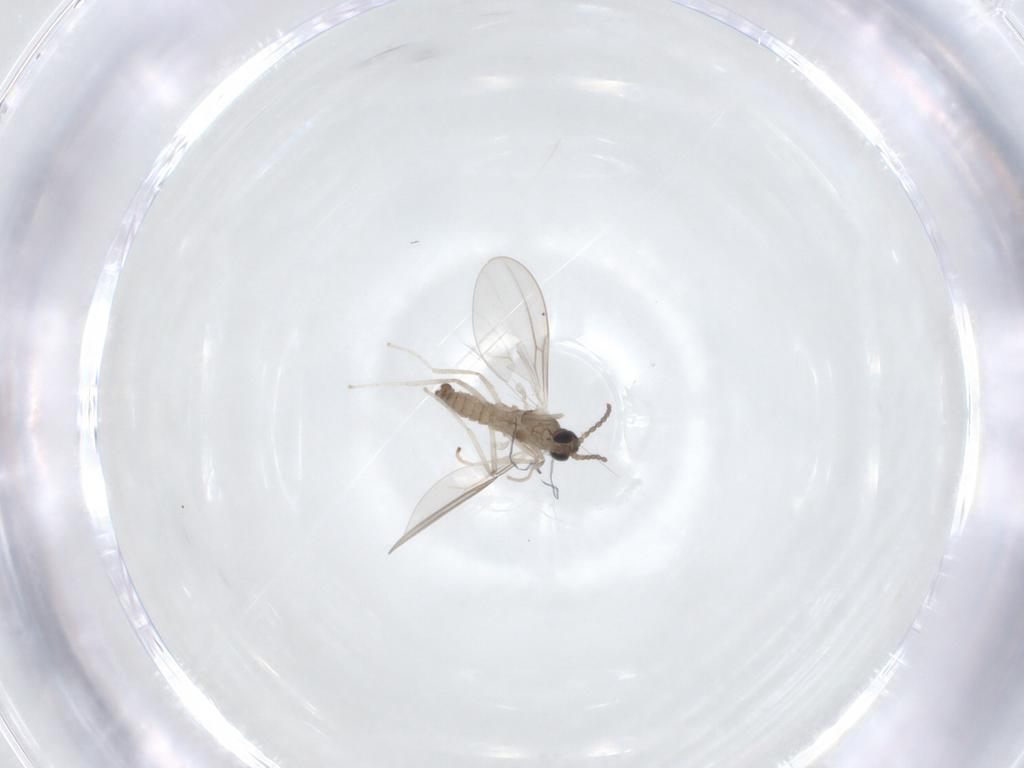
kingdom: Animalia
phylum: Arthropoda
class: Insecta
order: Diptera
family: Cecidomyiidae
